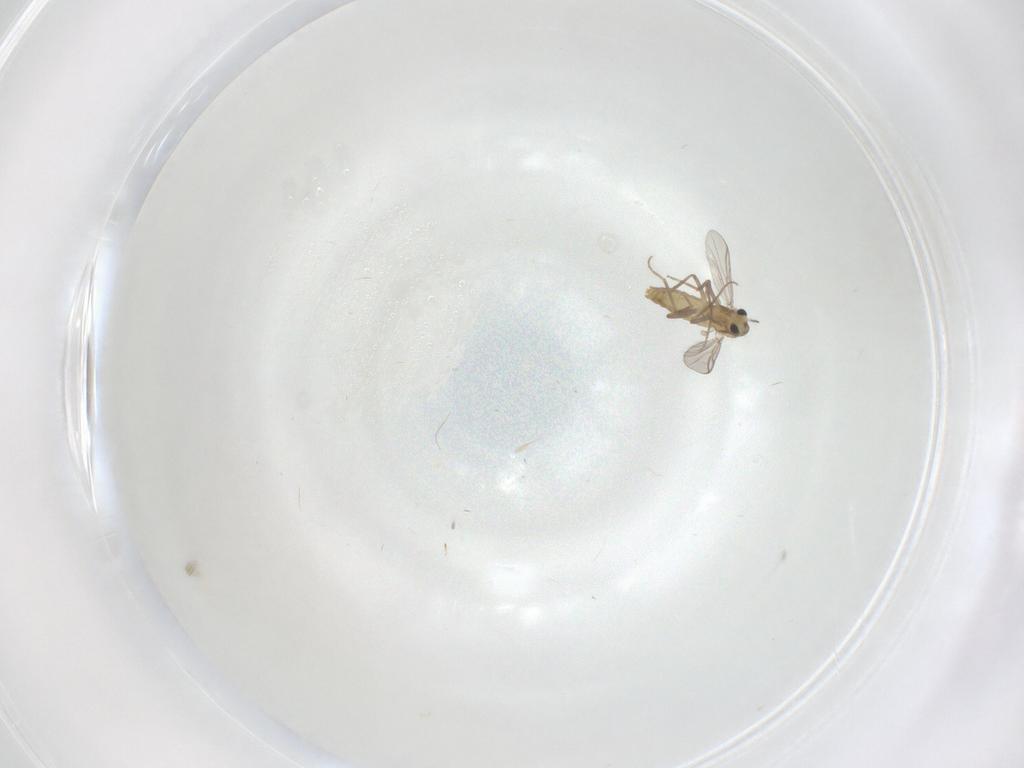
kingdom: Animalia
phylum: Arthropoda
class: Insecta
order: Diptera
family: Chironomidae
